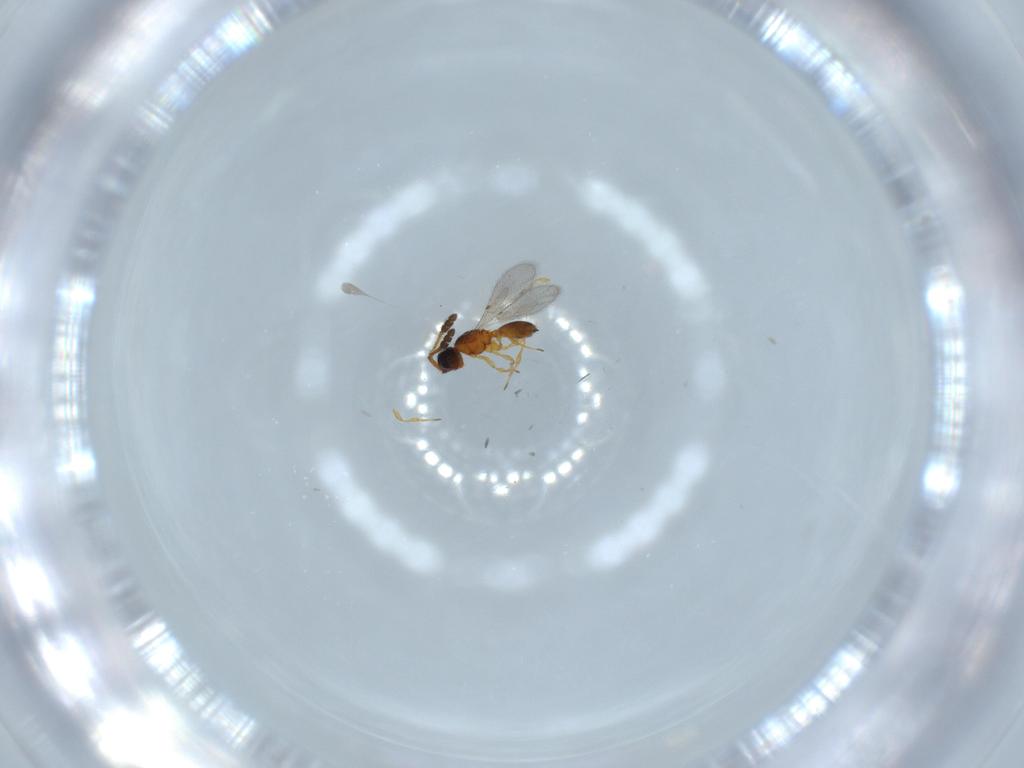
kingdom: Animalia
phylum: Arthropoda
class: Insecta
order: Hymenoptera
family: Diapriidae
